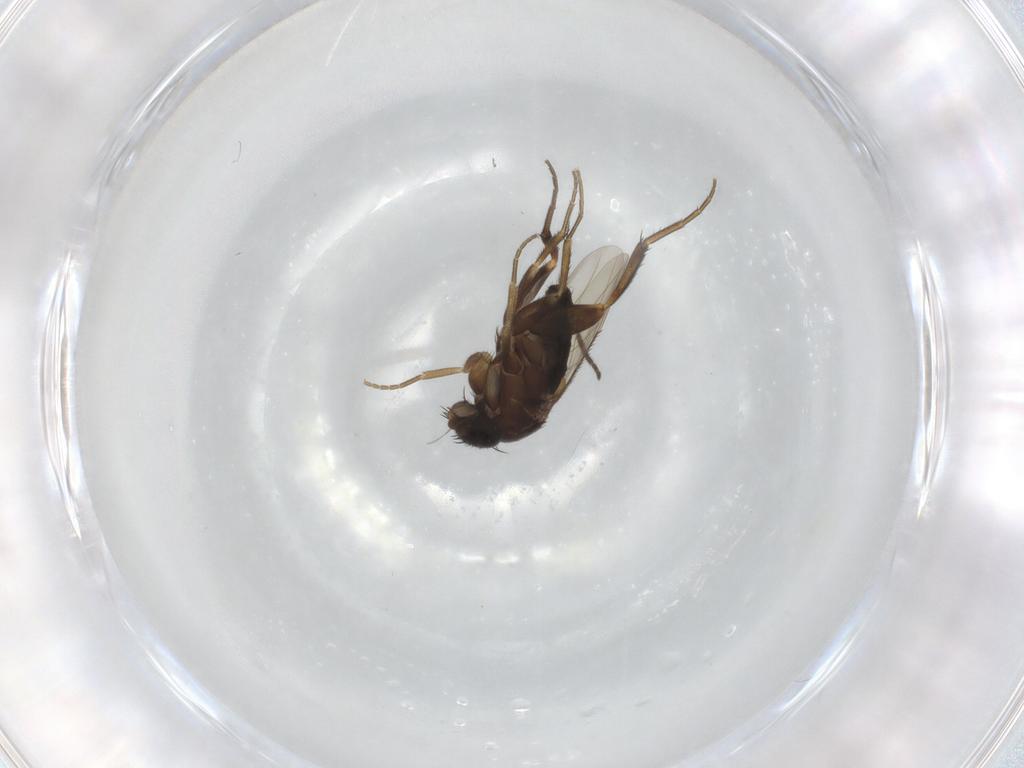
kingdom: Animalia
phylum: Arthropoda
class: Insecta
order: Diptera
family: Phoridae
